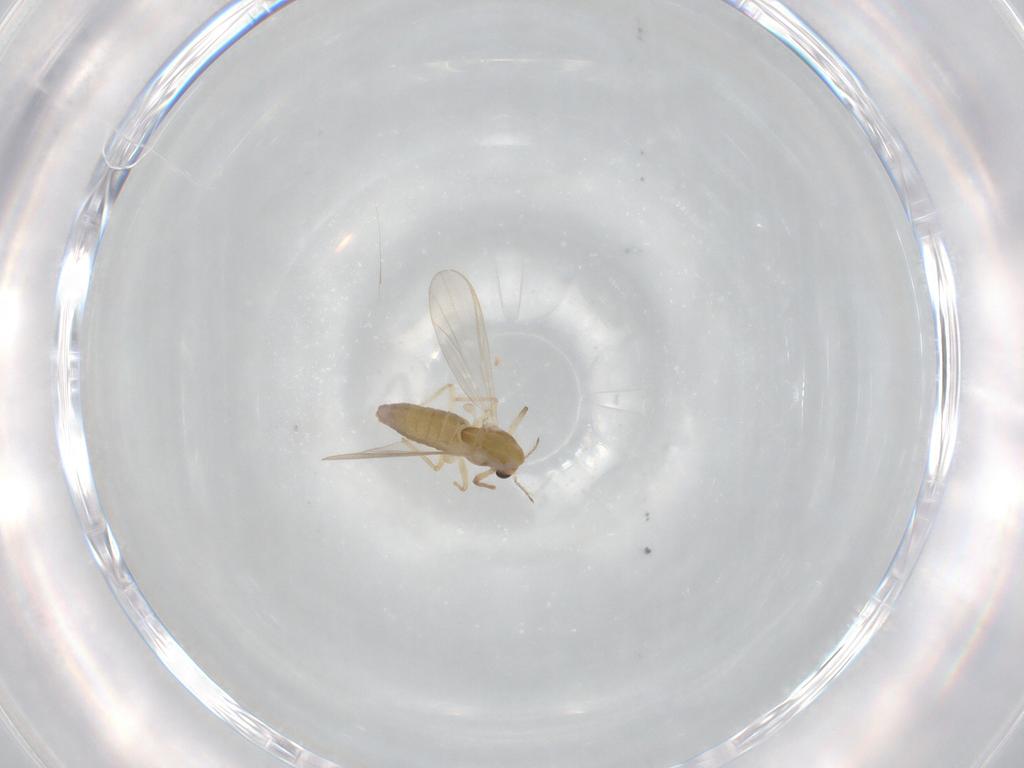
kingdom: Animalia
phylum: Arthropoda
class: Insecta
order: Diptera
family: Chironomidae
